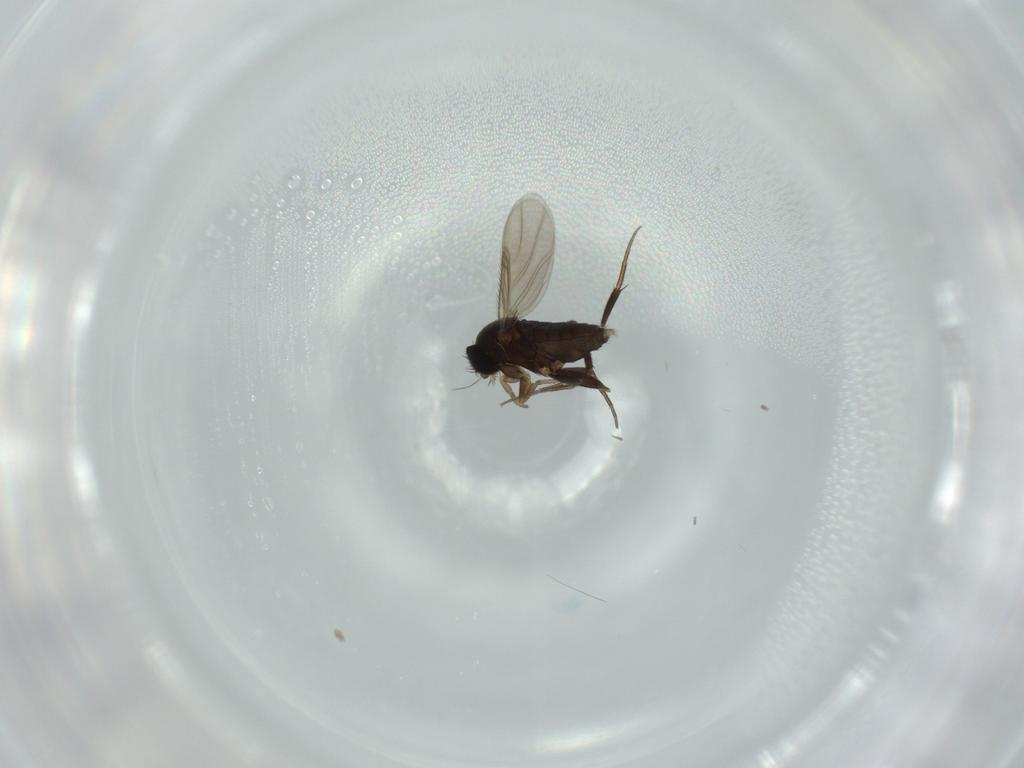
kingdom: Animalia
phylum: Arthropoda
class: Insecta
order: Diptera
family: Phoridae
